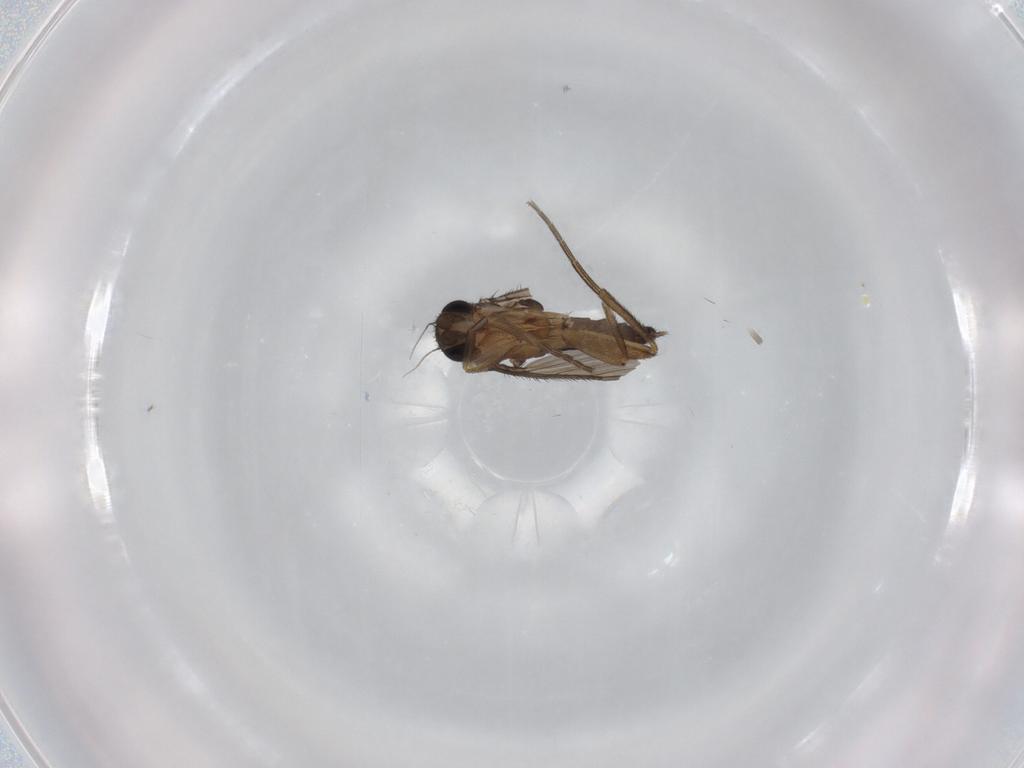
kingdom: Animalia
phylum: Arthropoda
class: Insecta
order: Diptera
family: Phoridae
